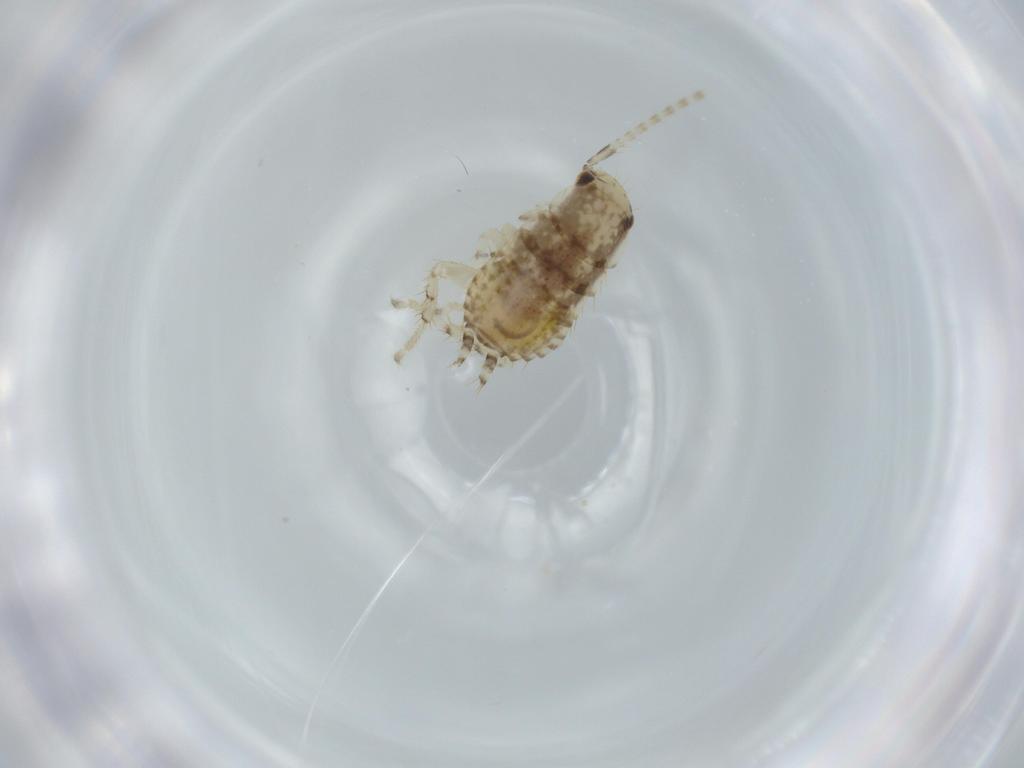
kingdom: Animalia
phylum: Arthropoda
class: Insecta
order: Blattodea
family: Ectobiidae
